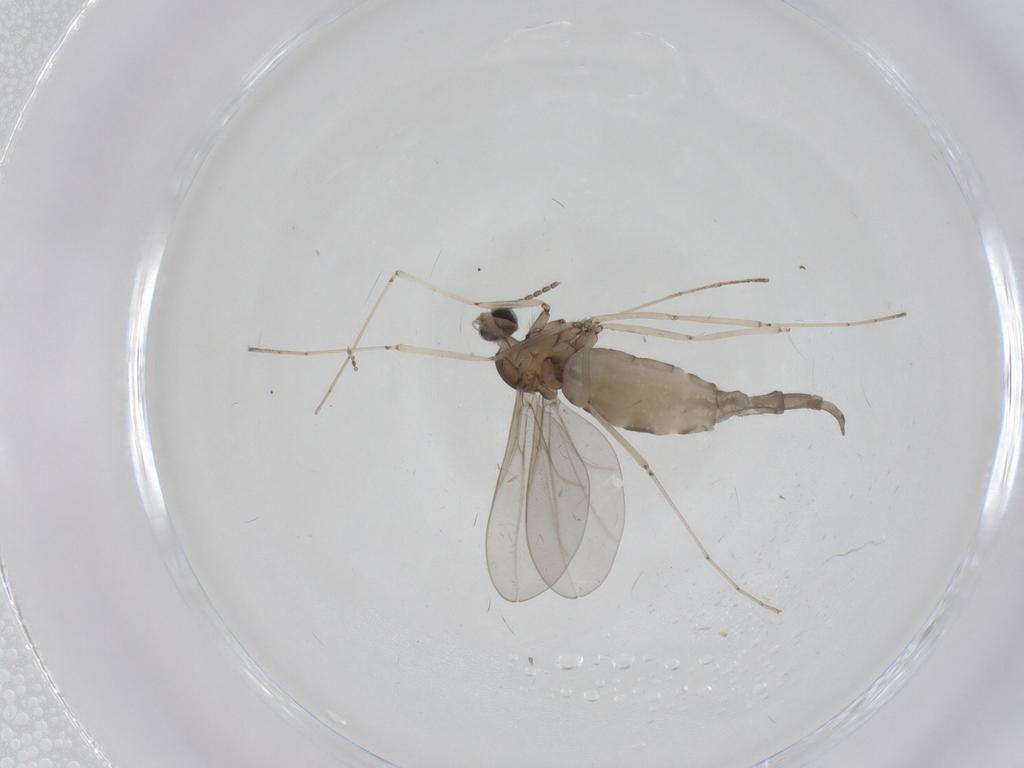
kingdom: Animalia
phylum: Arthropoda
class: Insecta
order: Diptera
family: Cecidomyiidae
